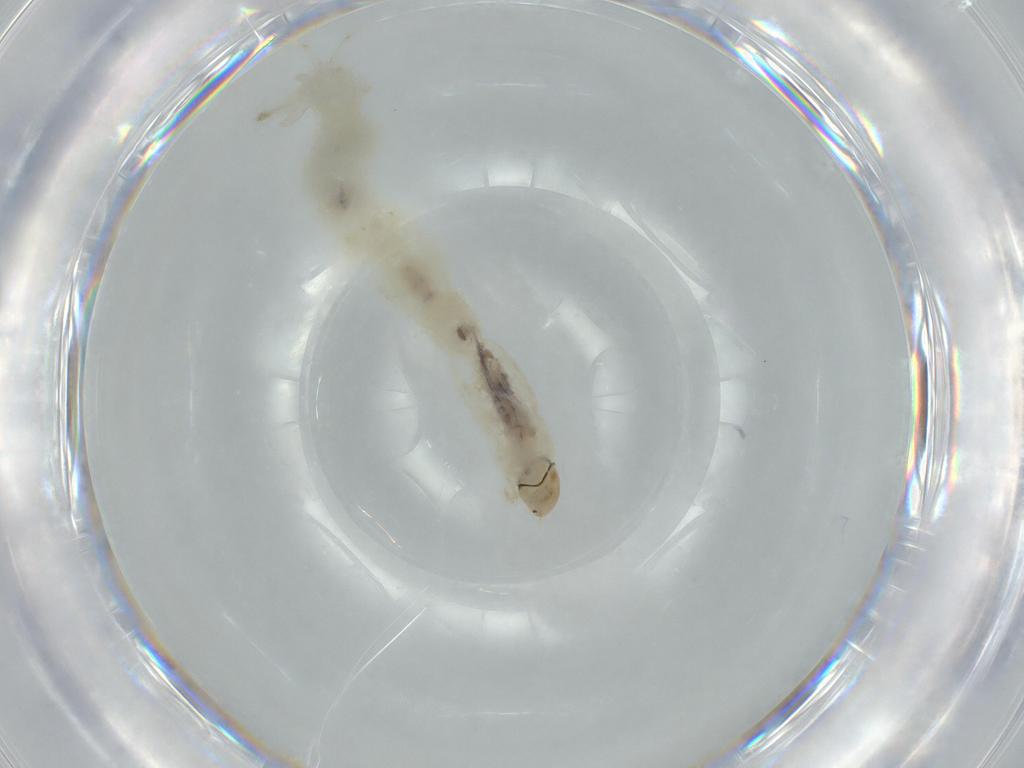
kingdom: Animalia
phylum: Arthropoda
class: Insecta
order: Diptera
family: Chironomidae
